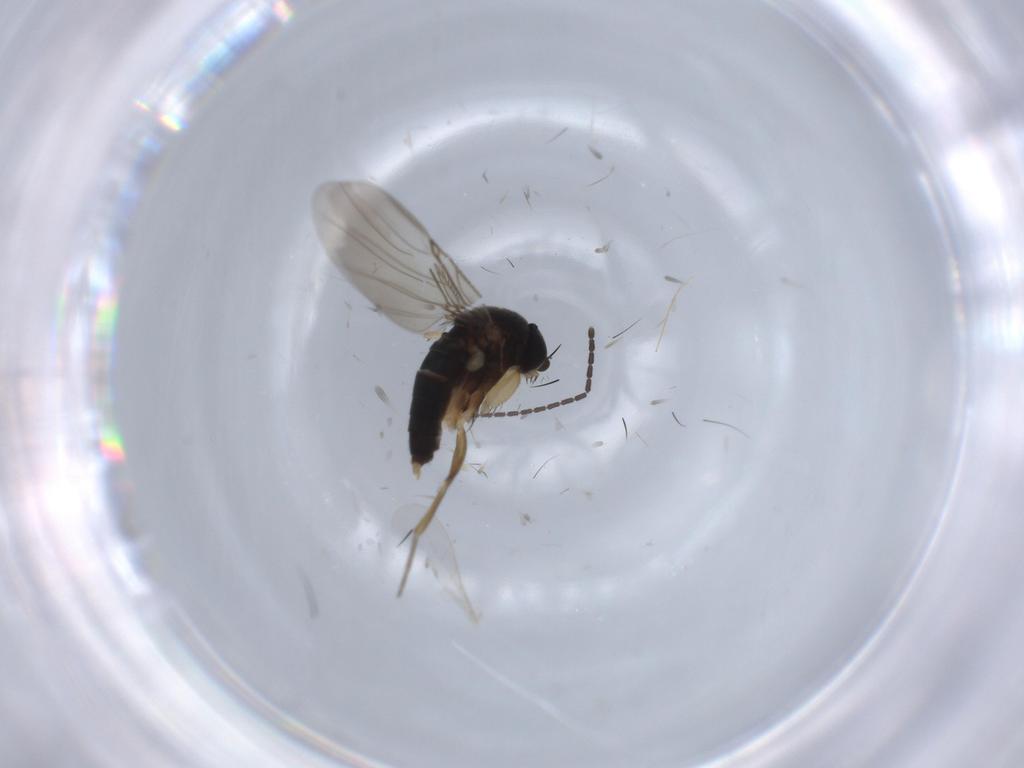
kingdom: Animalia
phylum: Arthropoda
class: Insecta
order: Diptera
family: Phoridae
